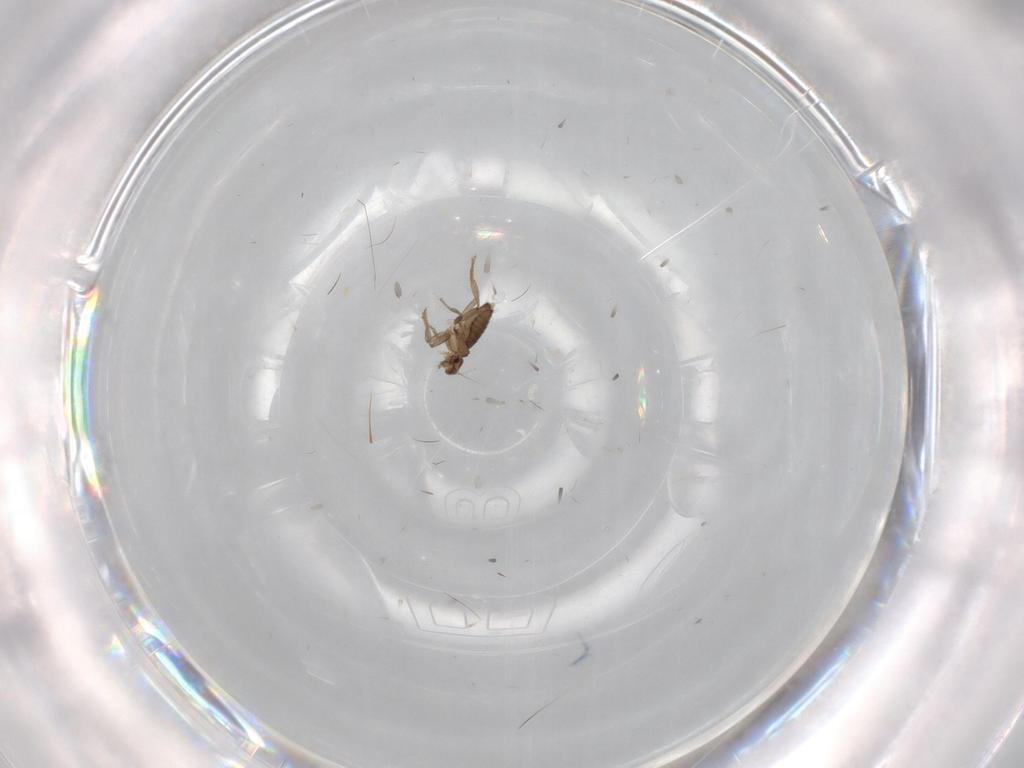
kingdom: Animalia
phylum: Arthropoda
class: Insecta
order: Diptera
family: Phoridae
